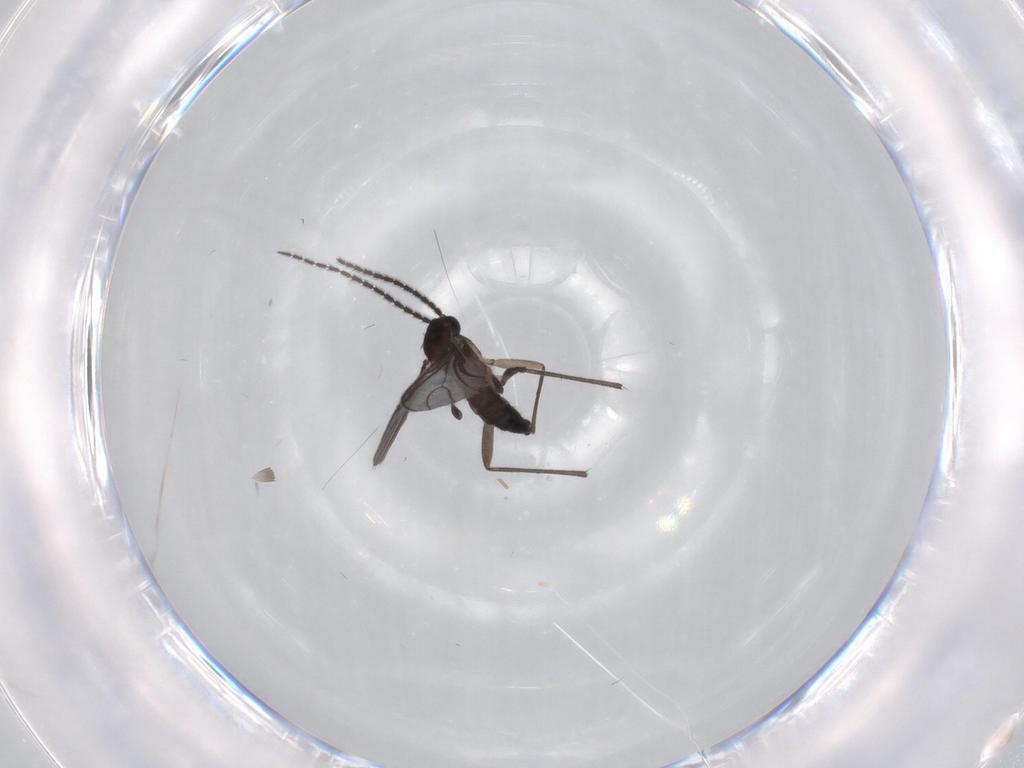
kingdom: Animalia
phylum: Arthropoda
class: Insecta
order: Diptera
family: Sciaridae
